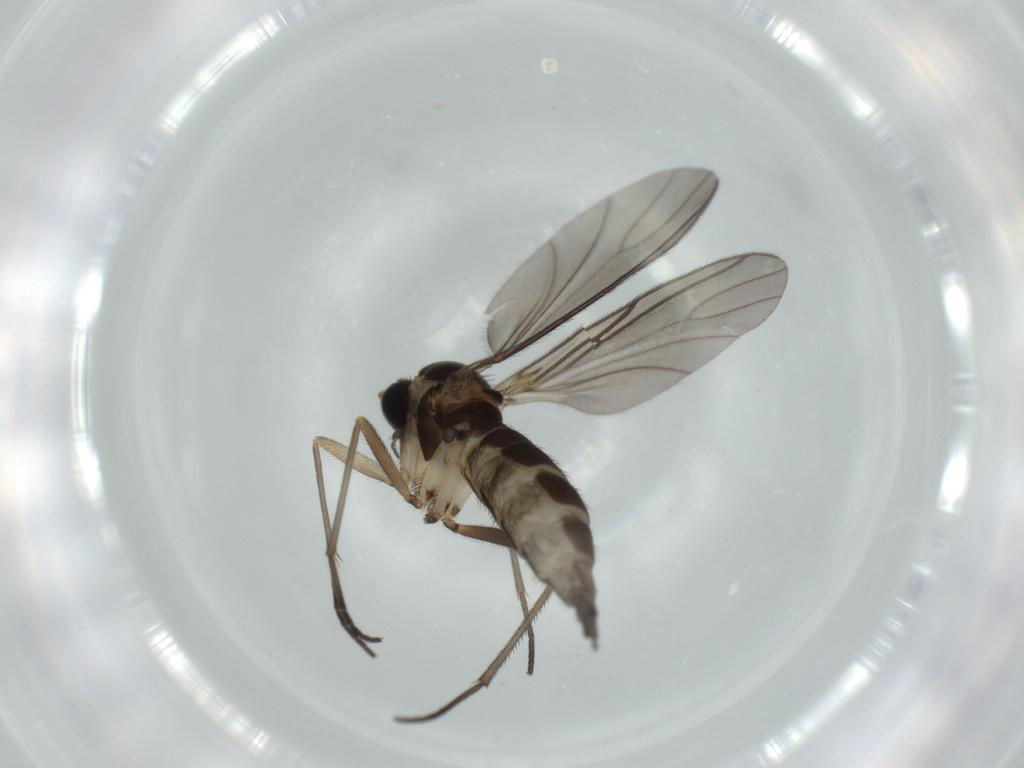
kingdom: Animalia
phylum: Arthropoda
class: Insecta
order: Diptera
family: Sciaridae
